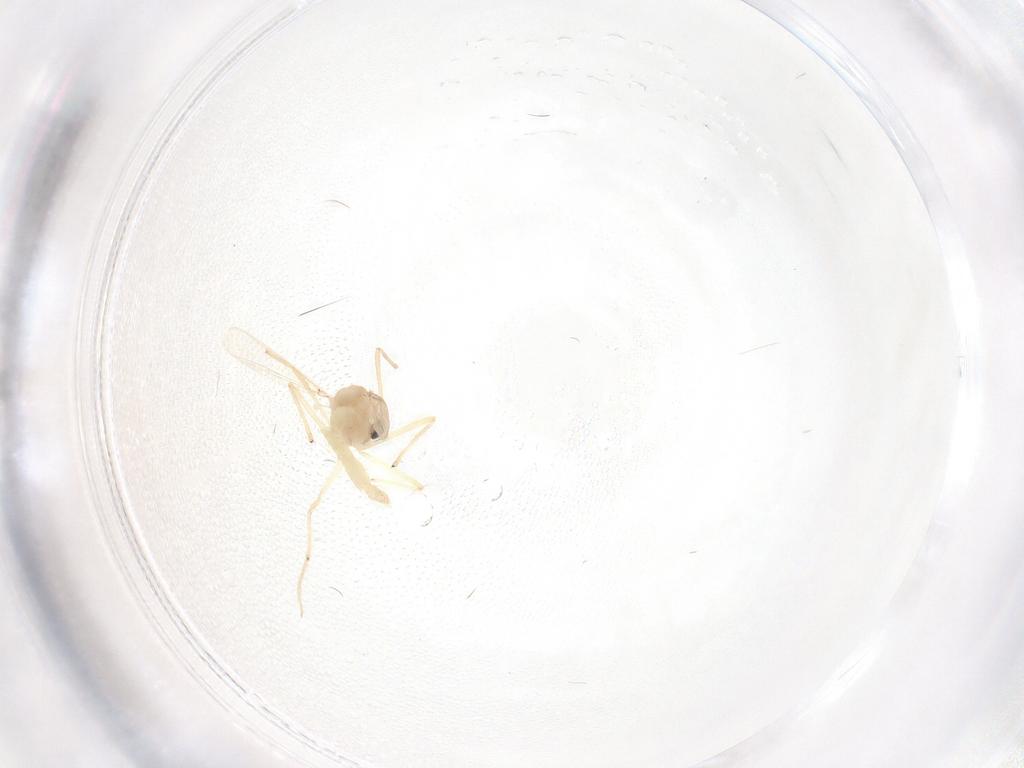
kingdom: Animalia
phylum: Arthropoda
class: Insecta
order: Diptera
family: Chironomidae
